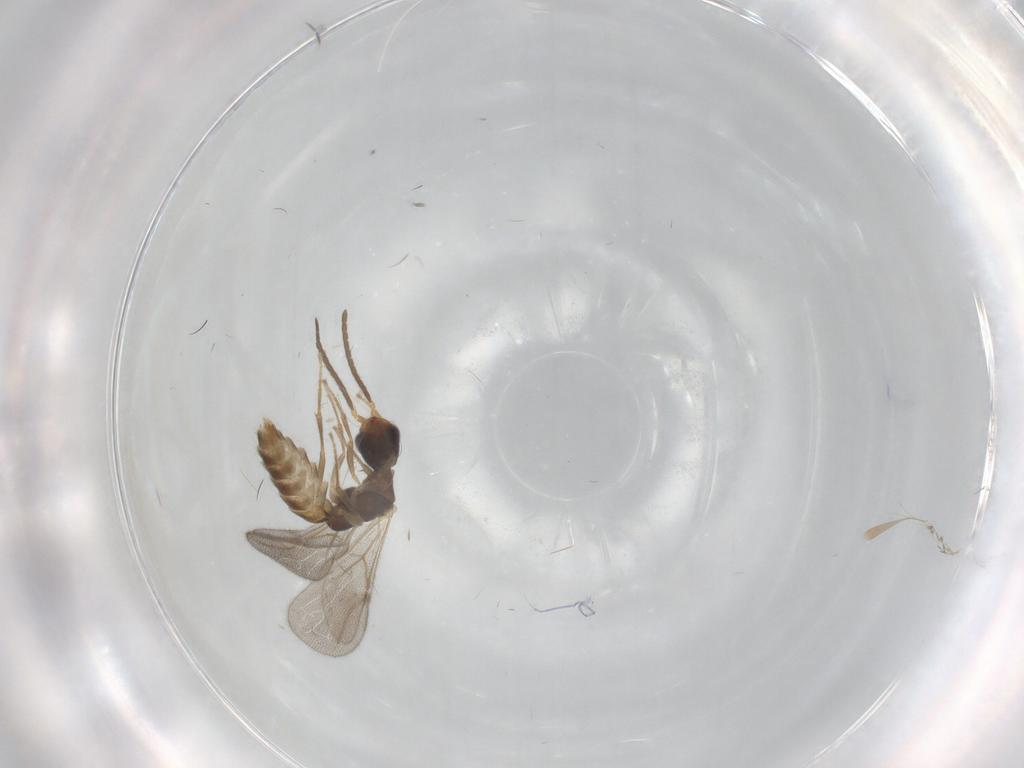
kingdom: Animalia
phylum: Arthropoda
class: Insecta
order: Hymenoptera
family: Bethylidae
